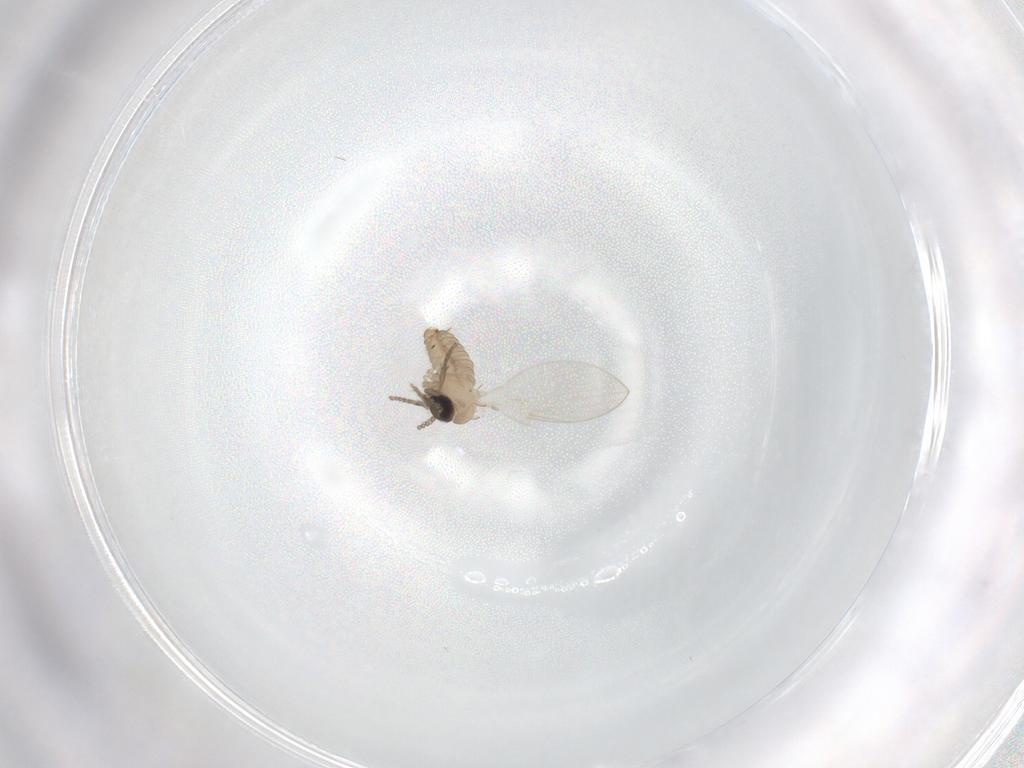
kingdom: Animalia
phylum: Arthropoda
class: Insecta
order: Diptera
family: Psychodidae
